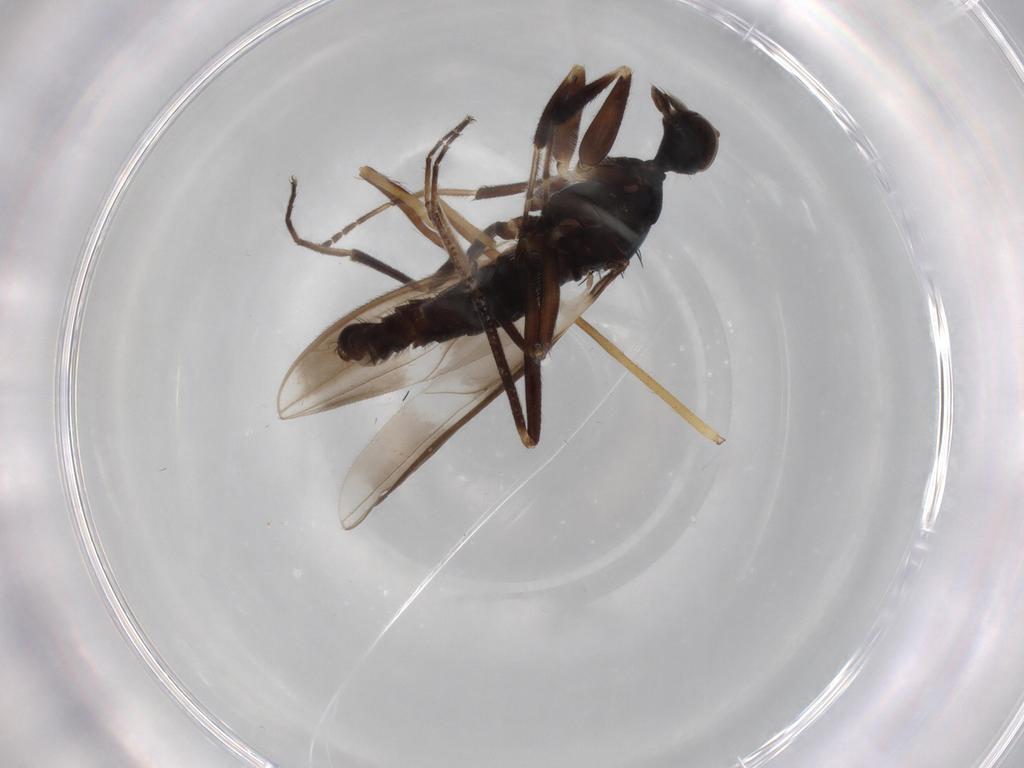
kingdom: Animalia
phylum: Arthropoda
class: Insecta
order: Diptera
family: Hybotidae
